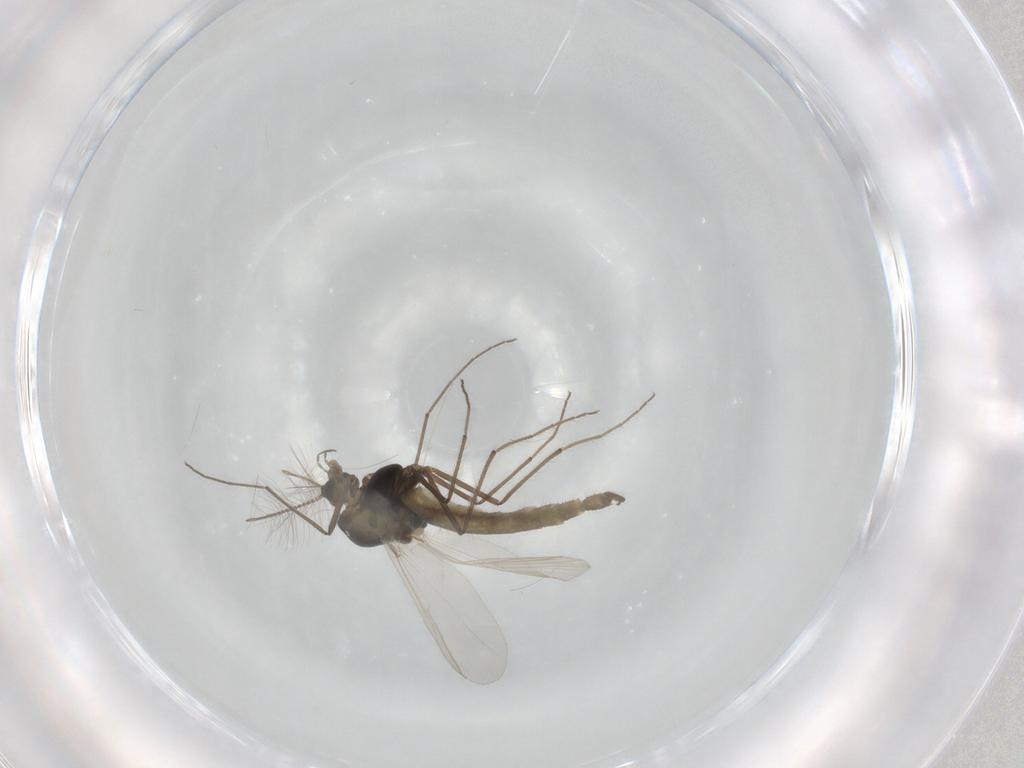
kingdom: Animalia
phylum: Arthropoda
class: Insecta
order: Diptera
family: Chironomidae
